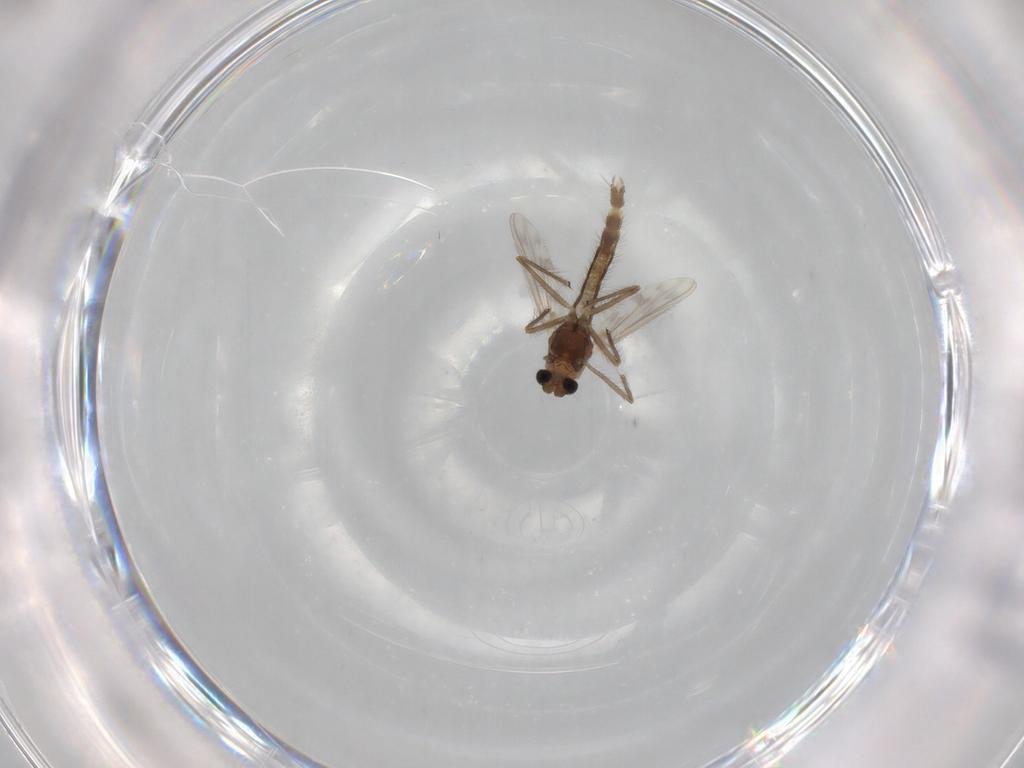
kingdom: Animalia
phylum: Arthropoda
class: Insecta
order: Diptera
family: Chironomidae
